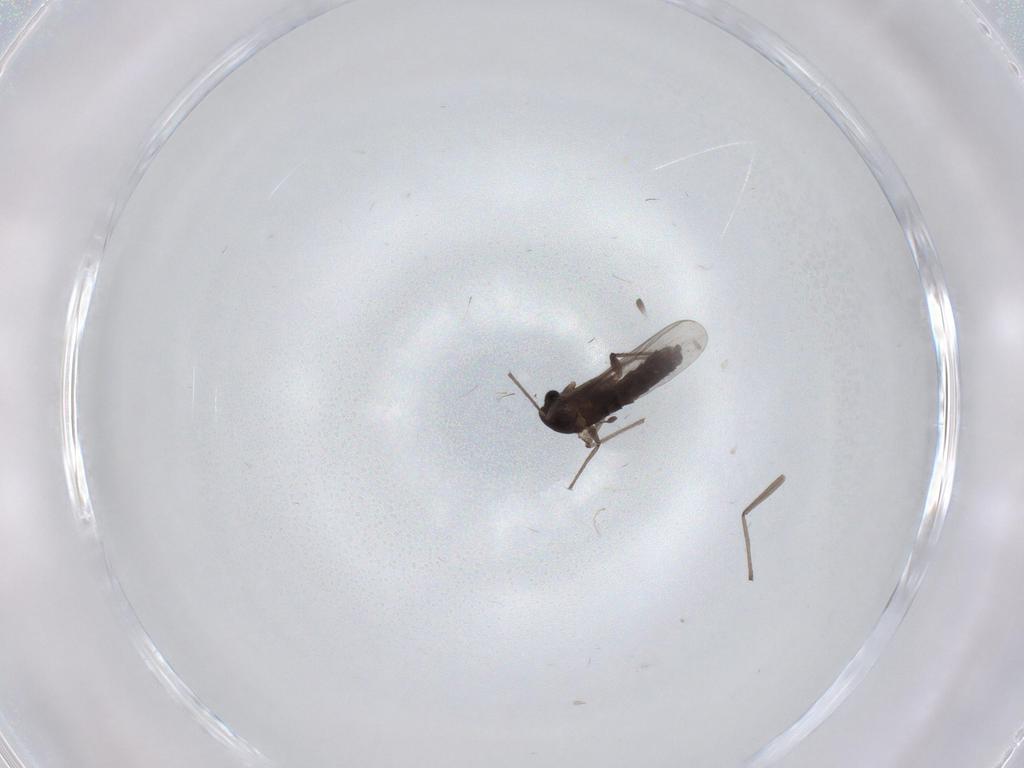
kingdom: Animalia
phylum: Arthropoda
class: Insecta
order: Diptera
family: Chironomidae
